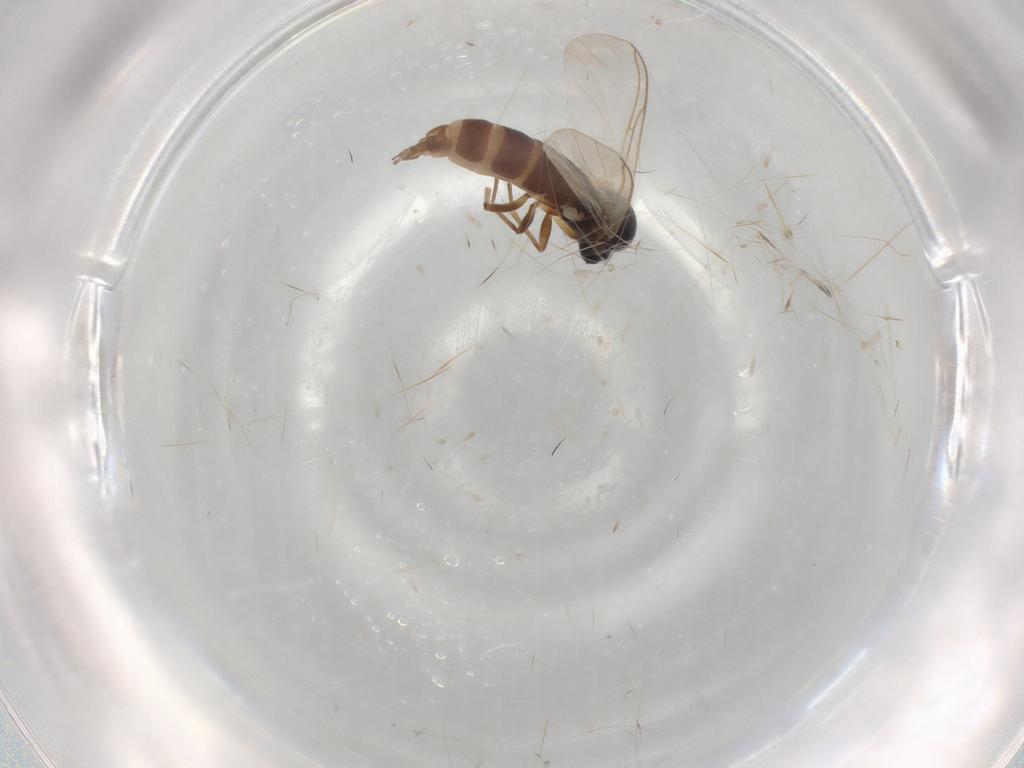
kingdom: Animalia
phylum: Arthropoda
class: Insecta
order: Diptera
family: Sciaridae
